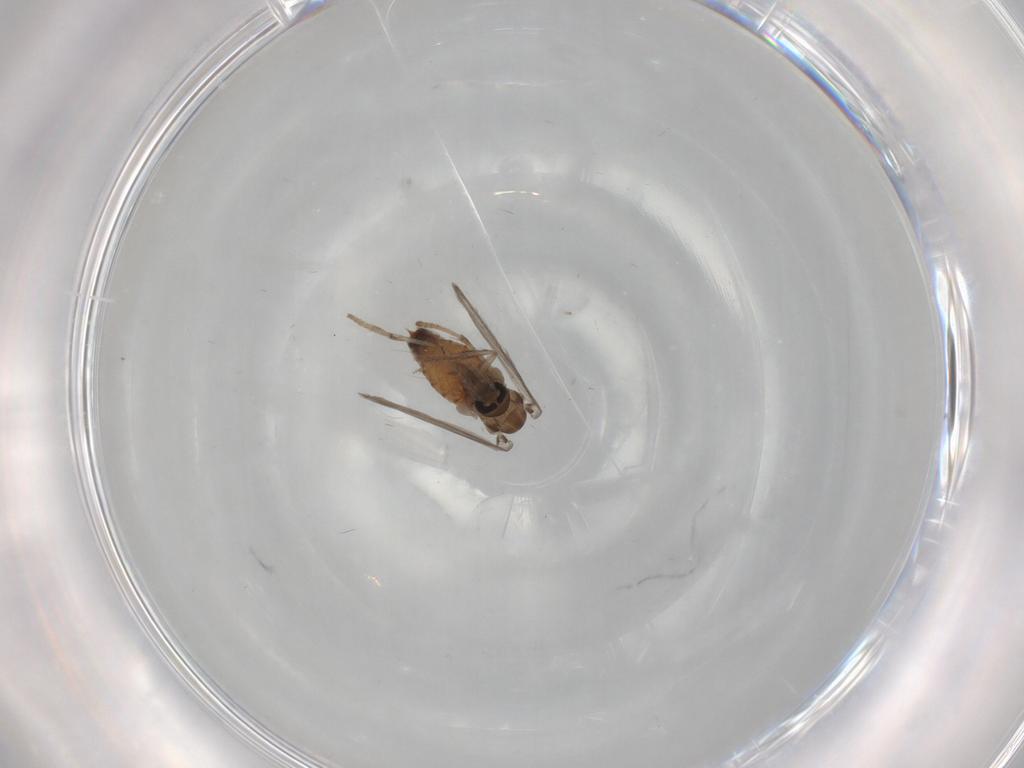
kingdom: Animalia
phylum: Arthropoda
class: Insecta
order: Diptera
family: Psychodidae
